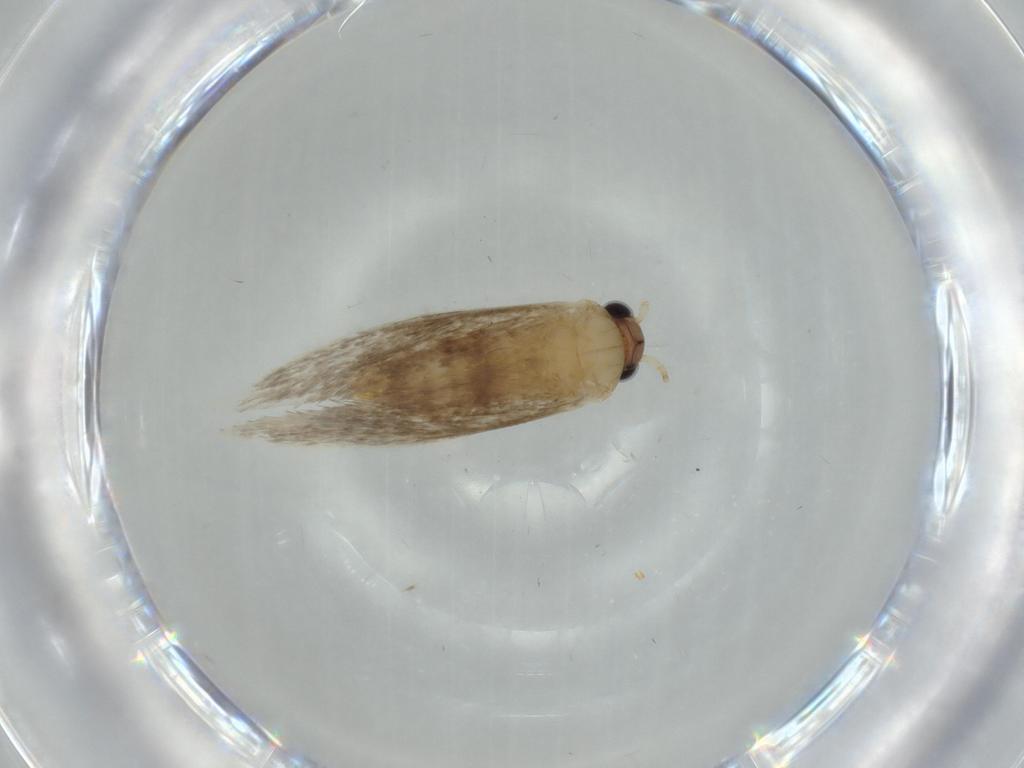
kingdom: Animalia
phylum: Arthropoda
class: Insecta
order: Lepidoptera
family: Tineidae
